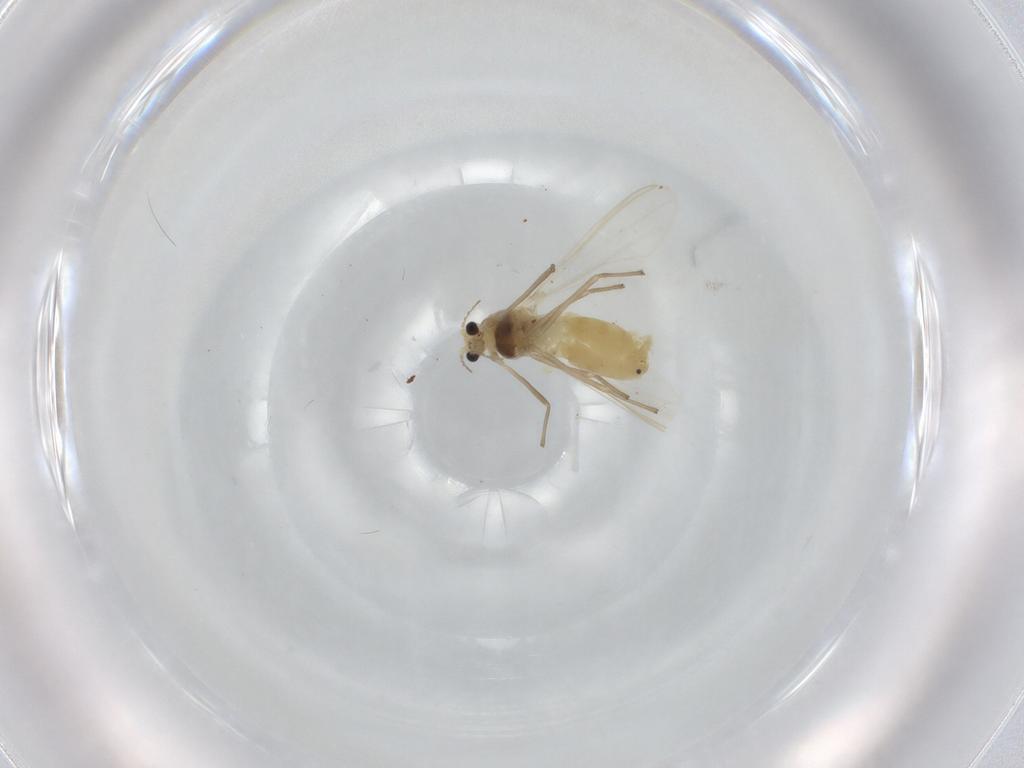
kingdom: Animalia
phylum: Arthropoda
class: Insecta
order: Diptera
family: Chironomidae
